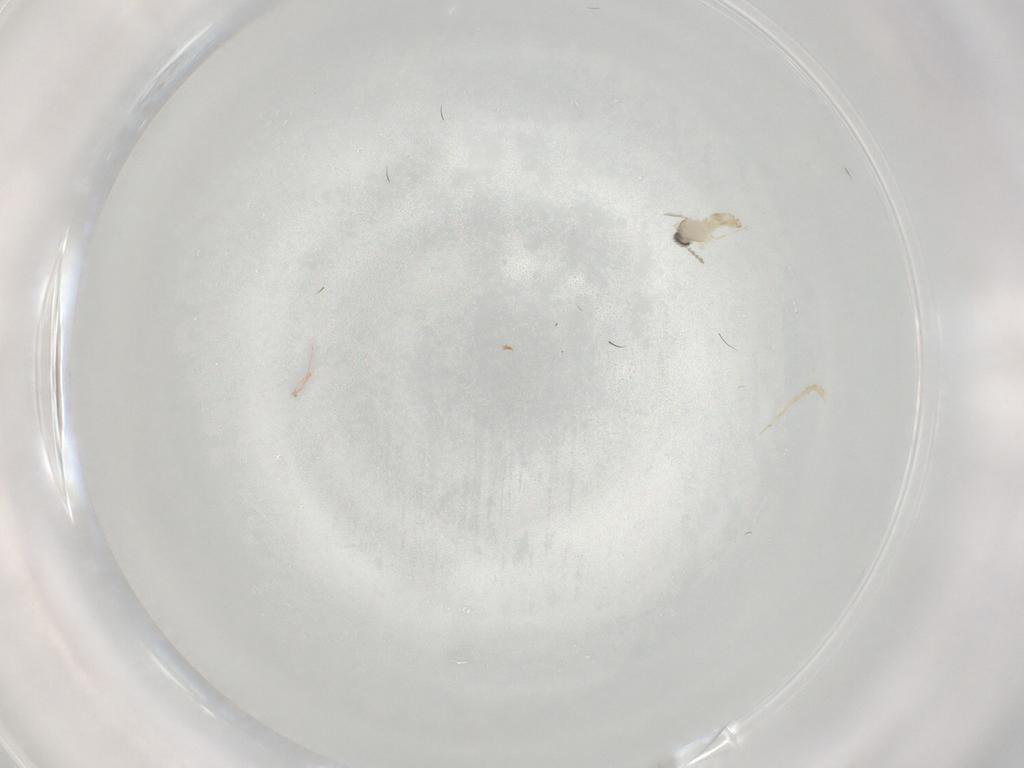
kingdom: Animalia
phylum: Arthropoda
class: Insecta
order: Diptera
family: Cecidomyiidae
